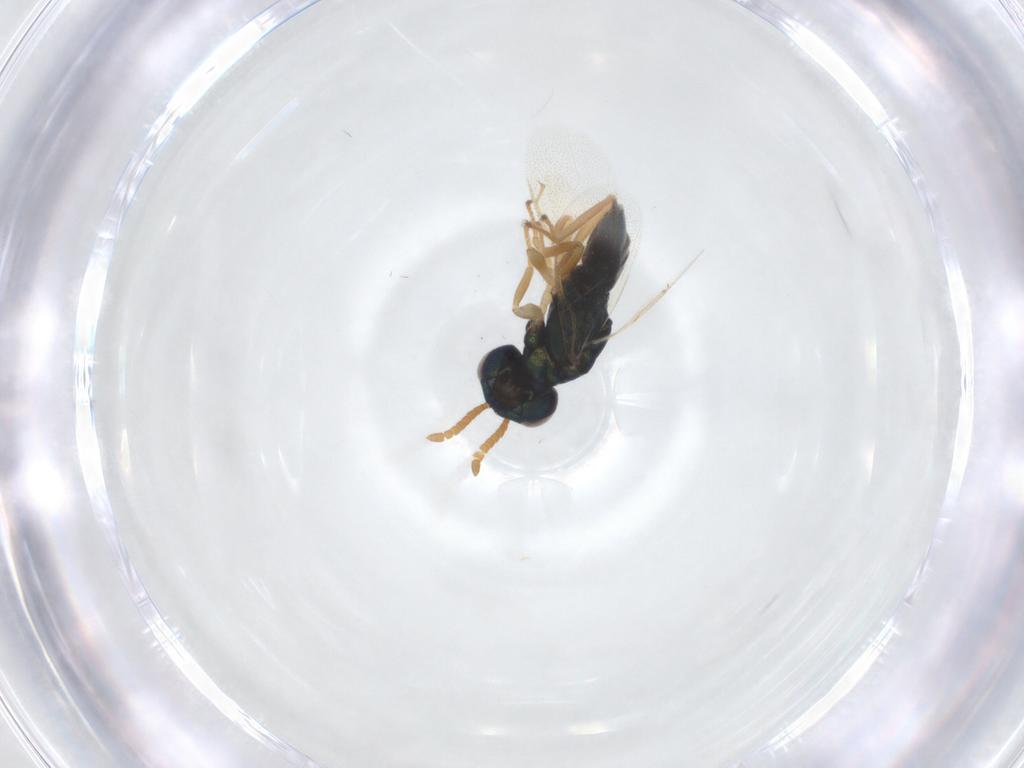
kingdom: Animalia
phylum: Arthropoda
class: Insecta
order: Hymenoptera
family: Pteromalidae
